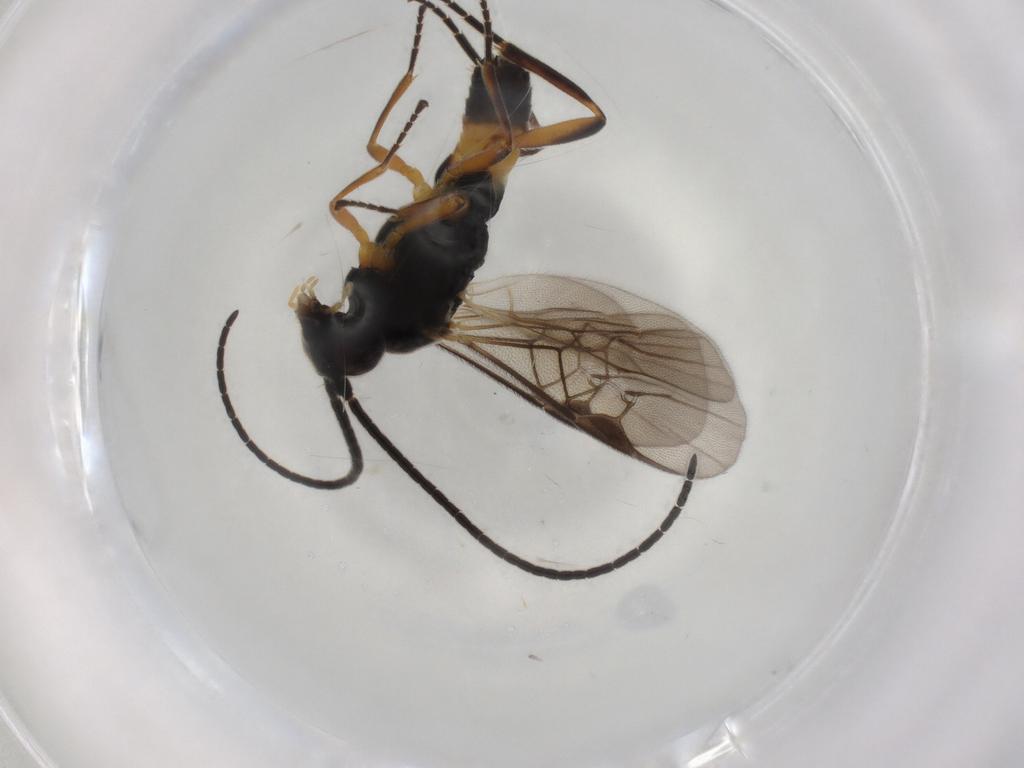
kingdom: Animalia
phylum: Arthropoda
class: Insecta
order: Hymenoptera
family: Braconidae
